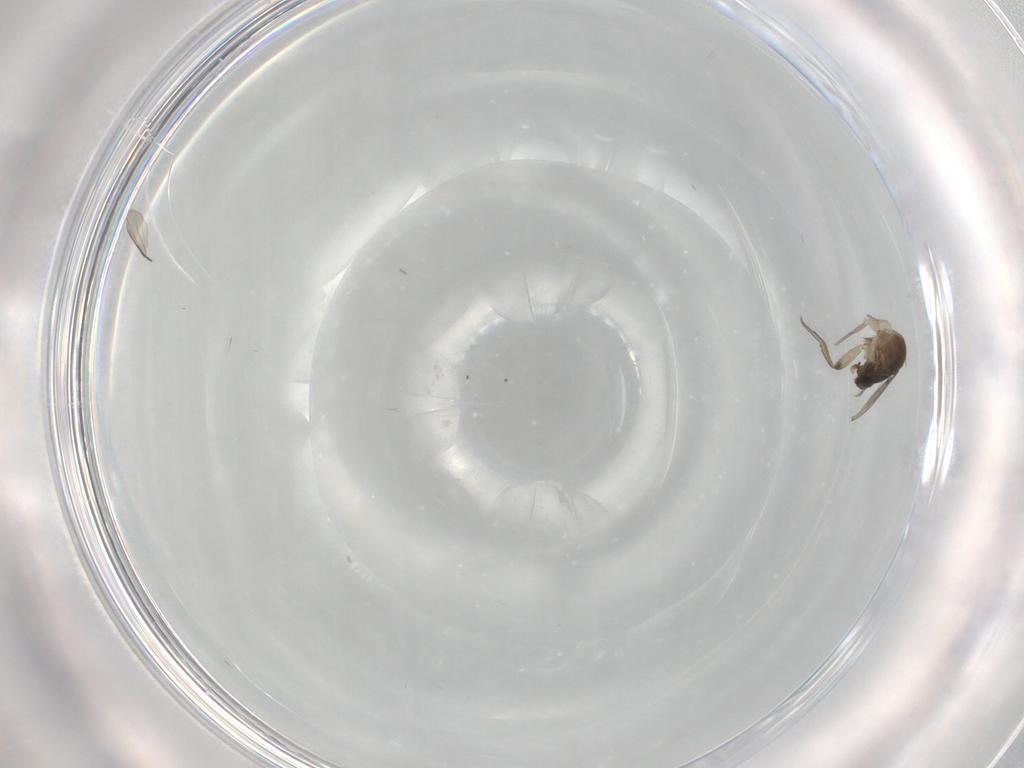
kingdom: Animalia
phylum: Arthropoda
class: Insecta
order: Diptera
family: Phoridae
